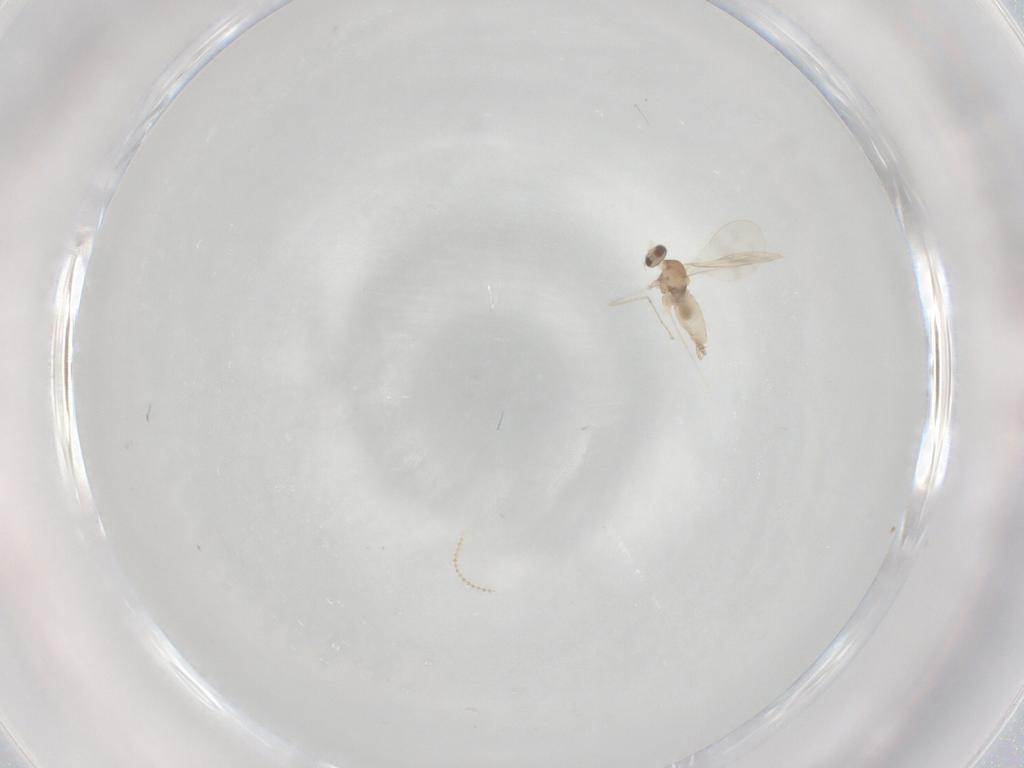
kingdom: Animalia
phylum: Arthropoda
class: Insecta
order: Diptera
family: Cecidomyiidae
